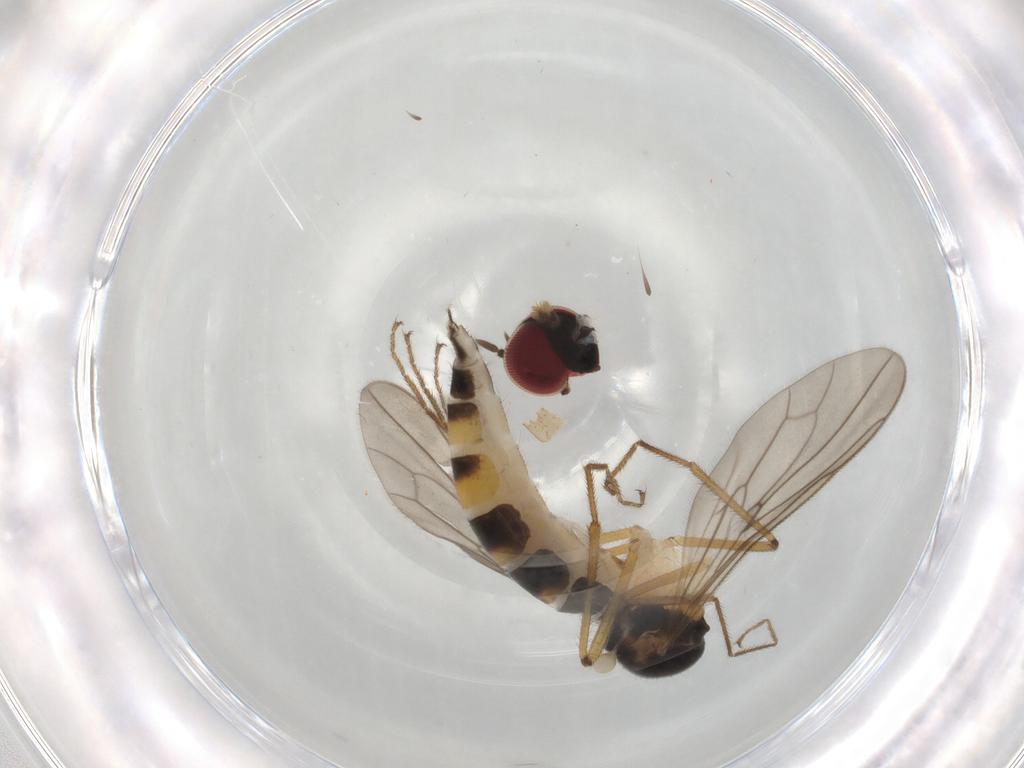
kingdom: Animalia
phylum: Arthropoda
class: Insecta
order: Diptera
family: Hybotidae
